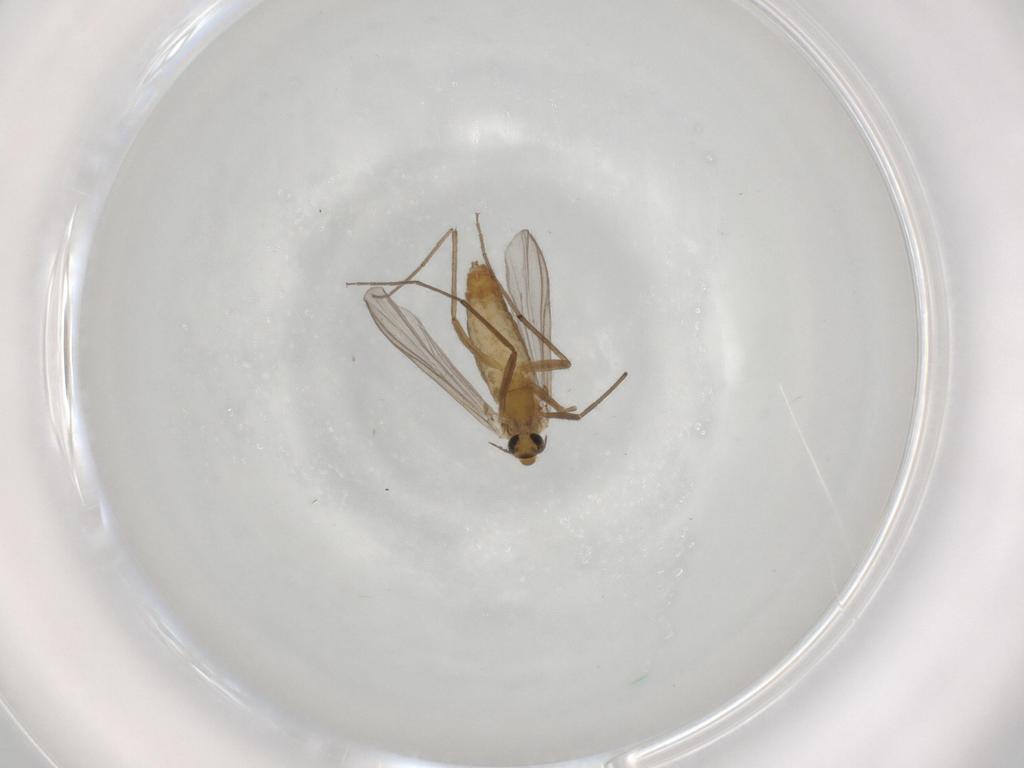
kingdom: Animalia
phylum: Arthropoda
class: Insecta
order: Diptera
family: Chironomidae
